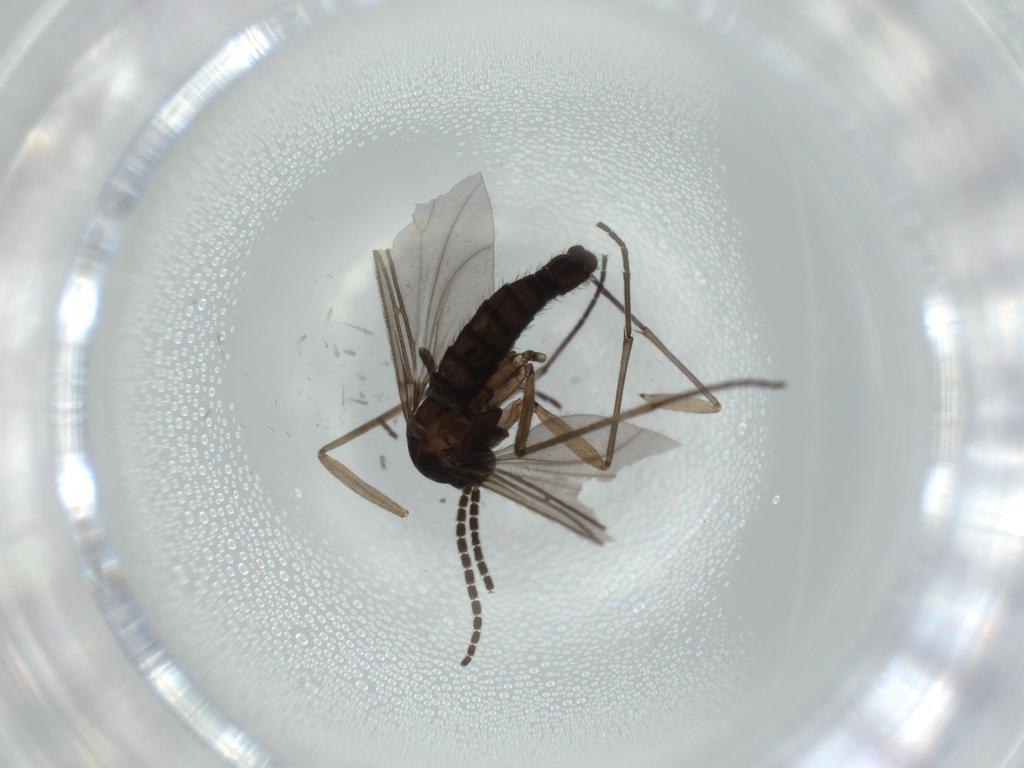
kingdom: Animalia
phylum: Arthropoda
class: Insecta
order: Diptera
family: Sciaridae
